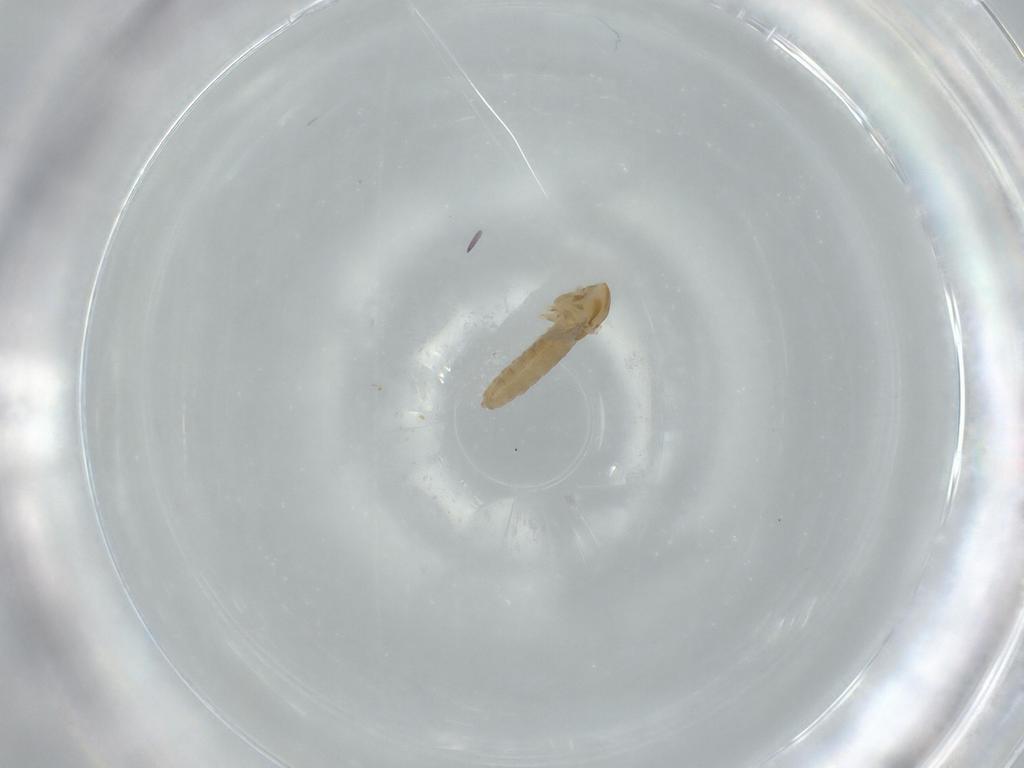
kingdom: Animalia
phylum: Arthropoda
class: Insecta
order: Diptera
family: Chironomidae
